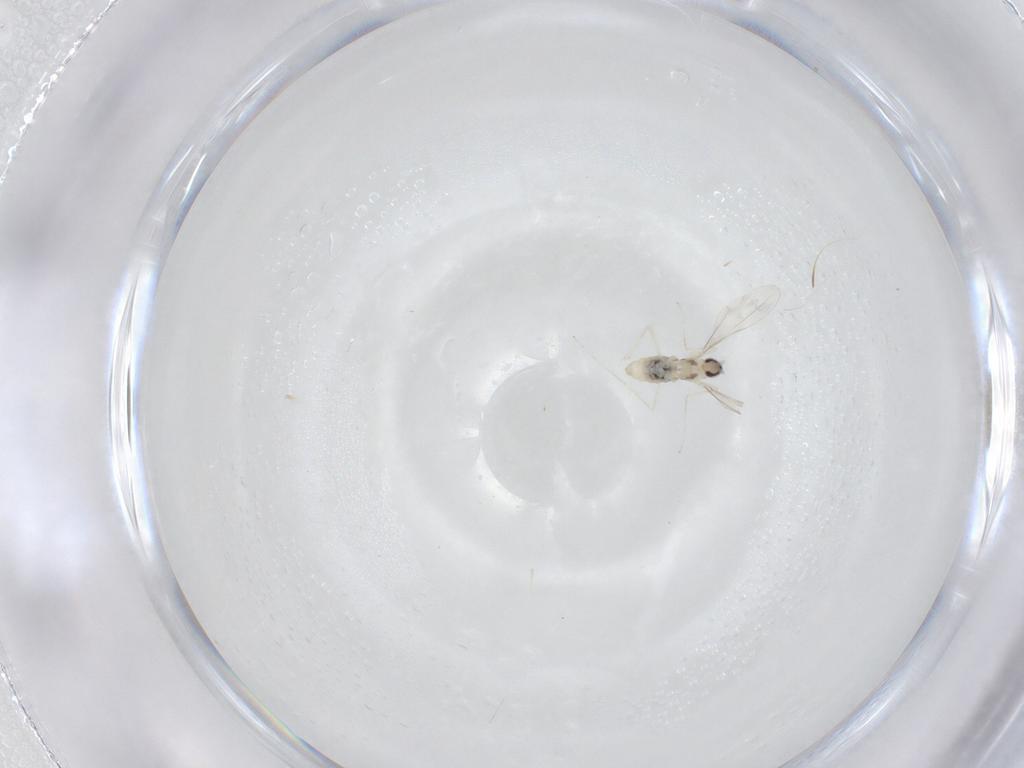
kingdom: Animalia
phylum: Arthropoda
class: Insecta
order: Diptera
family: Cecidomyiidae
